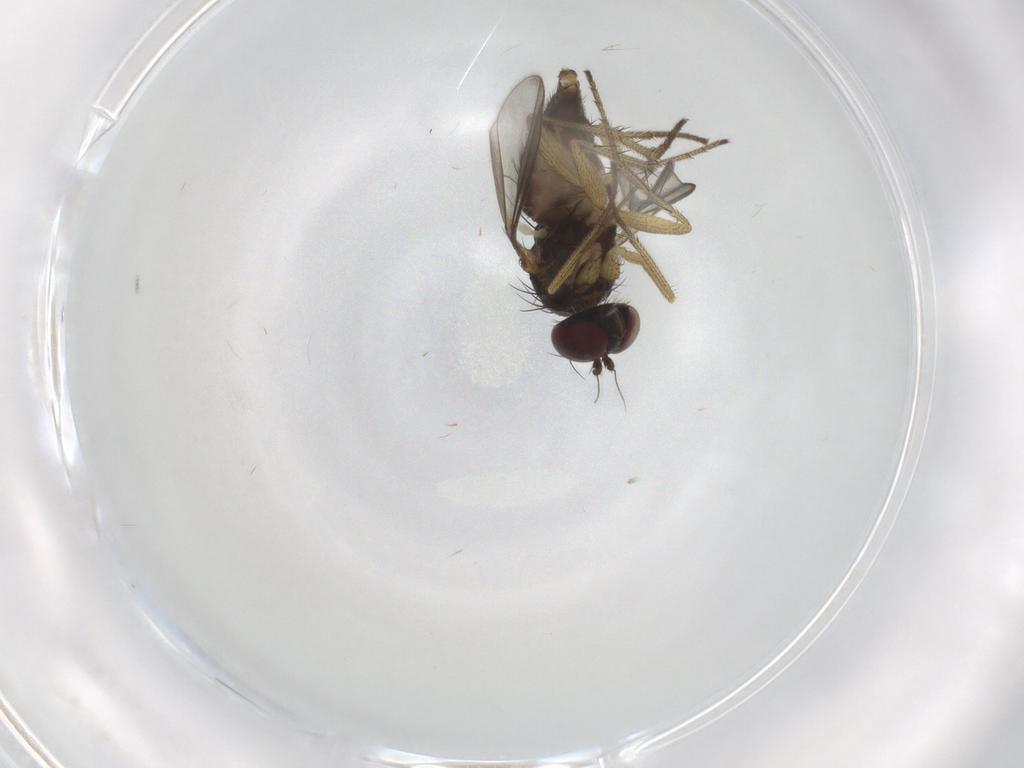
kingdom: Animalia
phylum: Arthropoda
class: Insecta
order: Diptera
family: Dolichopodidae
